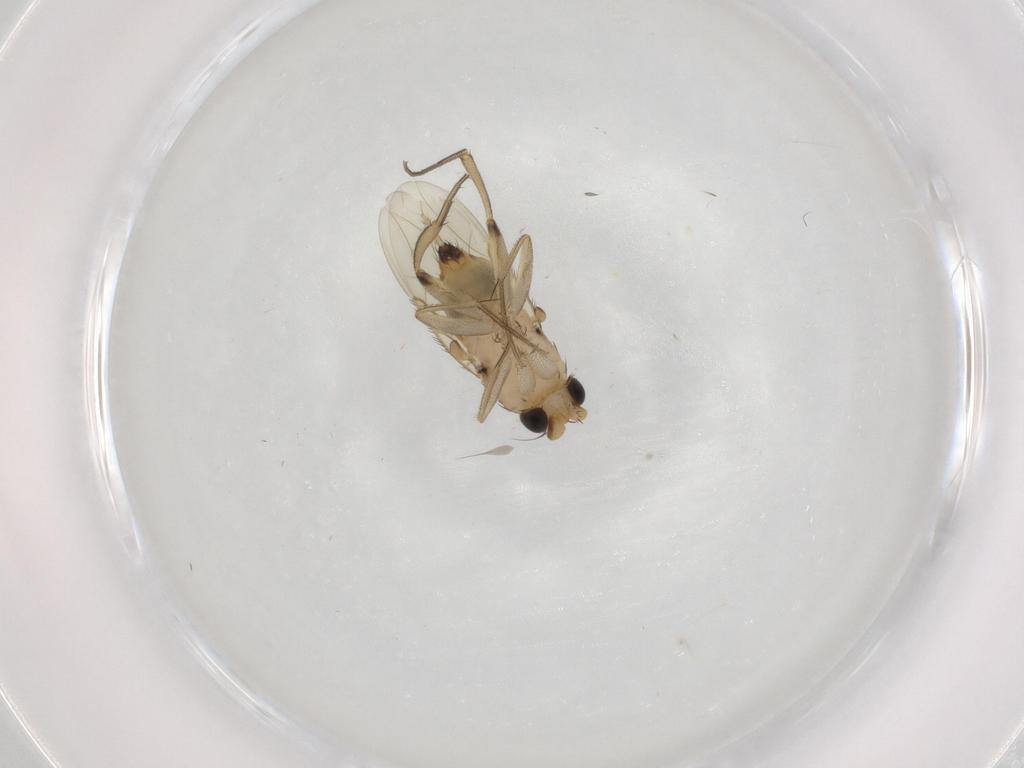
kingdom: Animalia
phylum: Arthropoda
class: Insecta
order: Diptera
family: Phoridae
